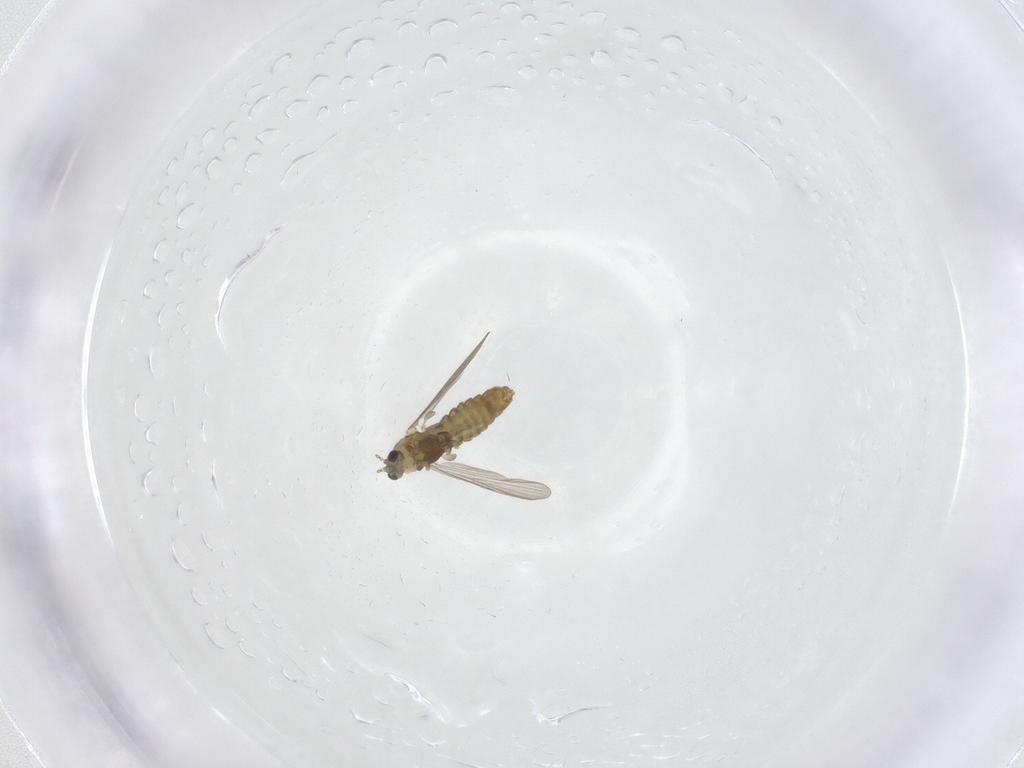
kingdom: Animalia
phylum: Arthropoda
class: Insecta
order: Diptera
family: Chironomidae
